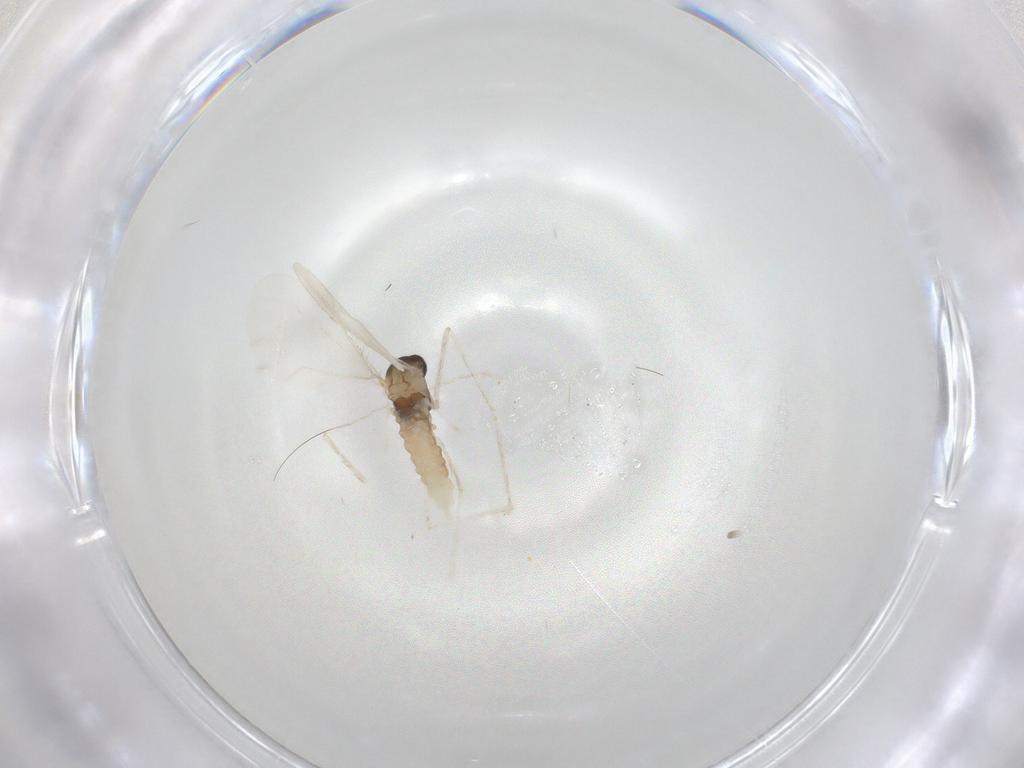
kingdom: Animalia
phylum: Arthropoda
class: Insecta
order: Diptera
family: Cecidomyiidae
